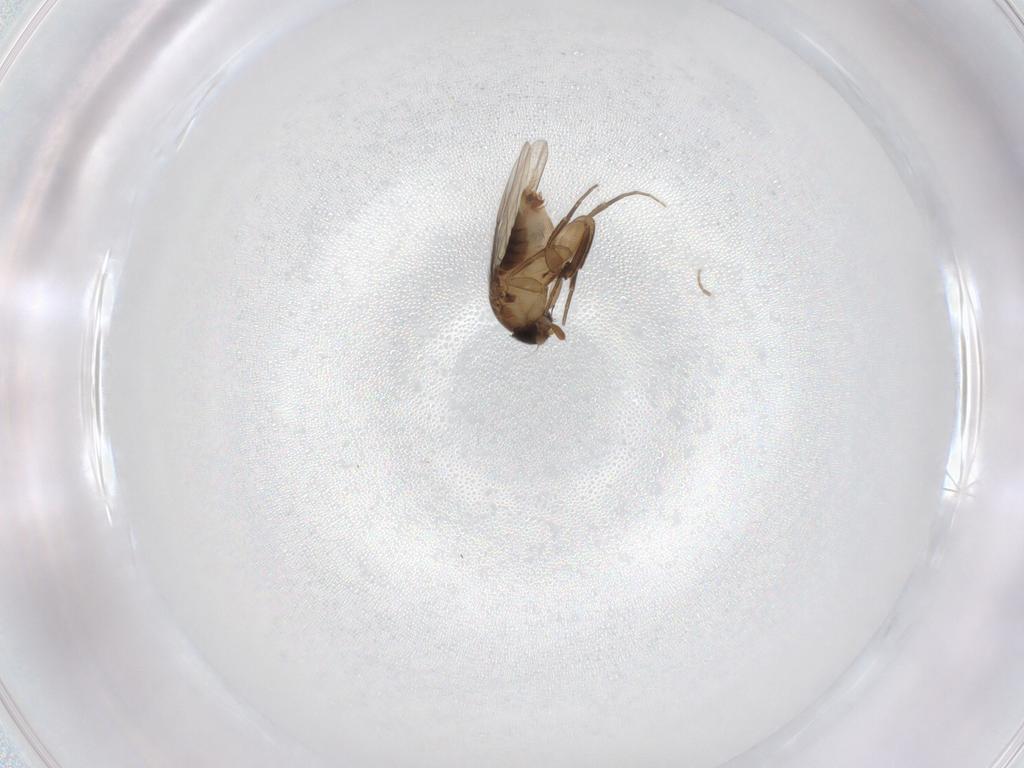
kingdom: Animalia
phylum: Arthropoda
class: Insecta
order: Diptera
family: Phoridae
